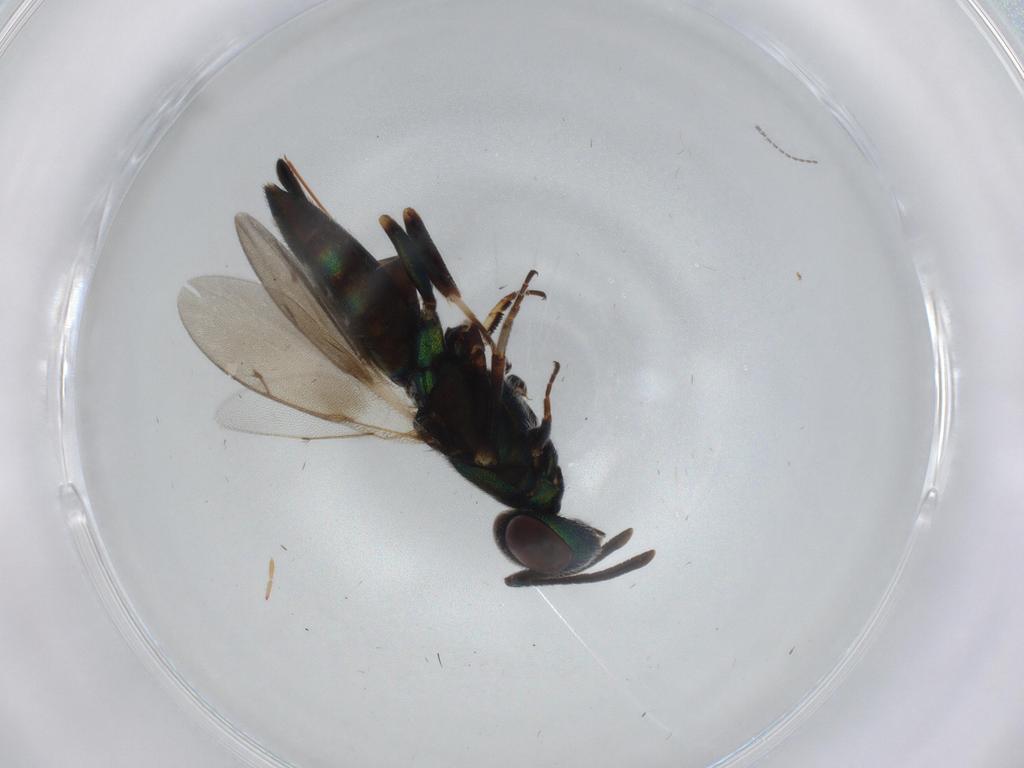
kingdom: Animalia
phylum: Arthropoda
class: Insecta
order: Hymenoptera
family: Eupelmidae
